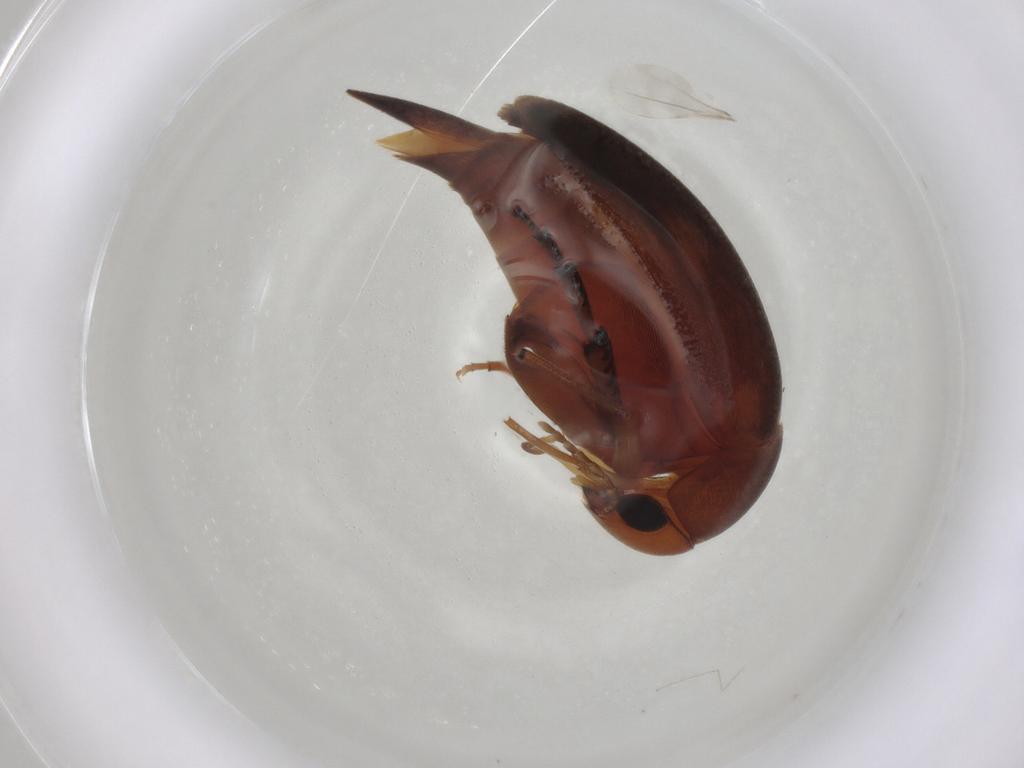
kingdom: Animalia
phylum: Arthropoda
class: Insecta
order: Coleoptera
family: Mordellidae
